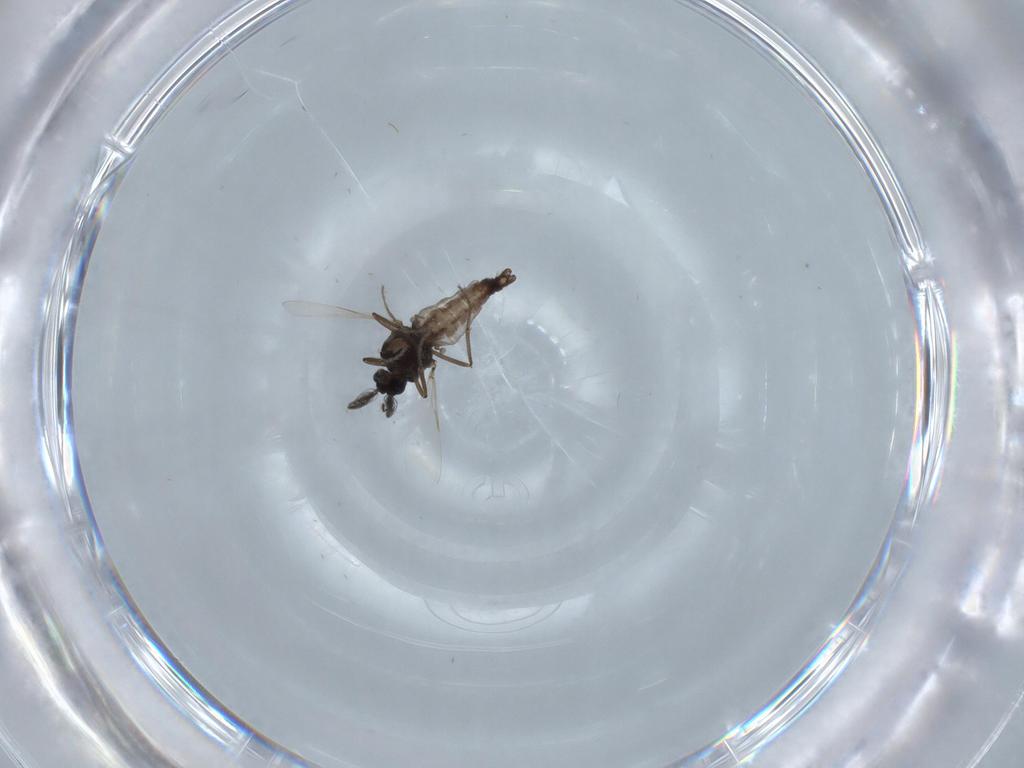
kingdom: Animalia
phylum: Arthropoda
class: Insecta
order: Diptera
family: Ceratopogonidae
